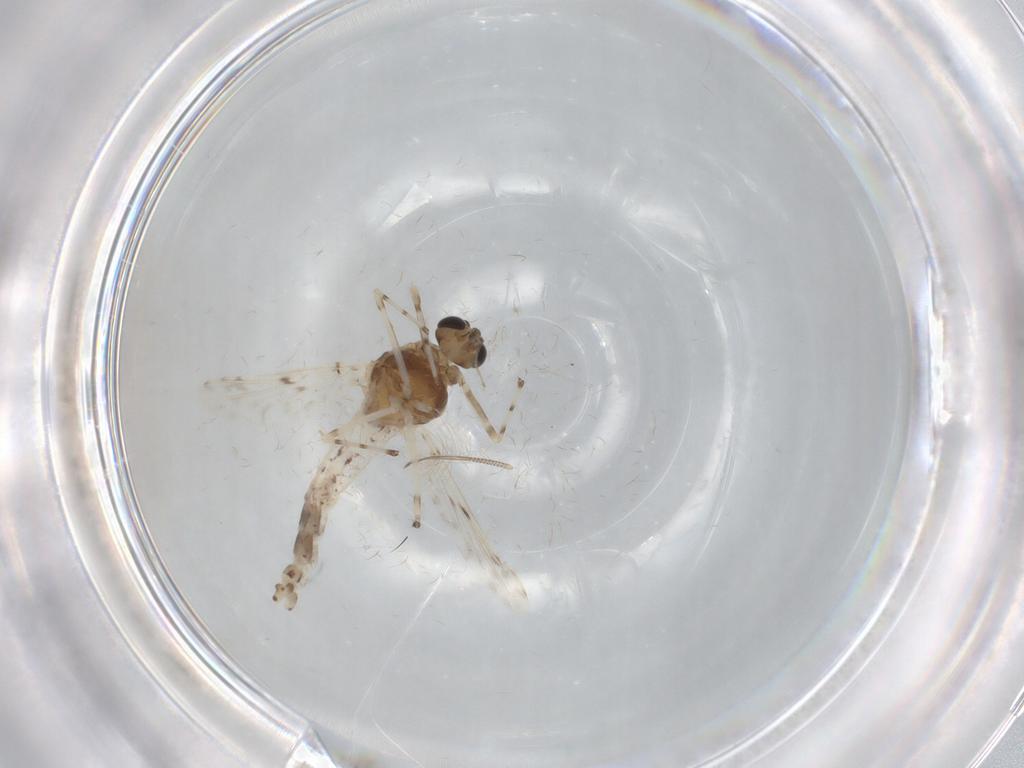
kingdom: Animalia
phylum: Arthropoda
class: Insecta
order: Diptera
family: Chironomidae
